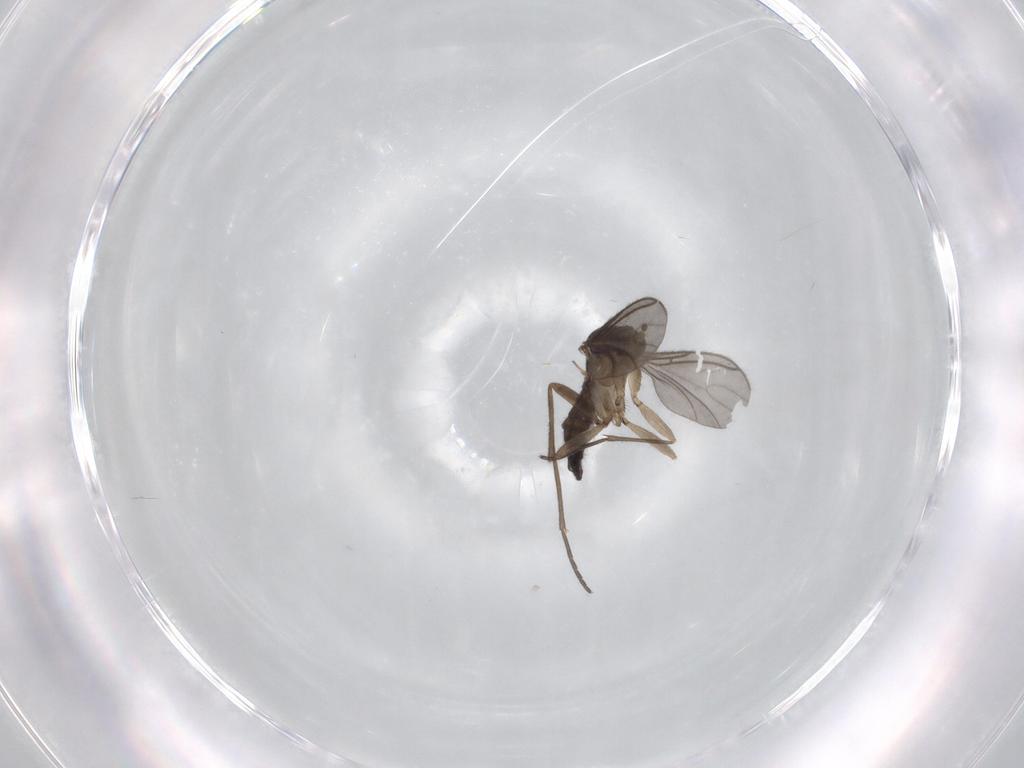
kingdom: Animalia
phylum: Arthropoda
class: Insecta
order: Diptera
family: Sciaridae
